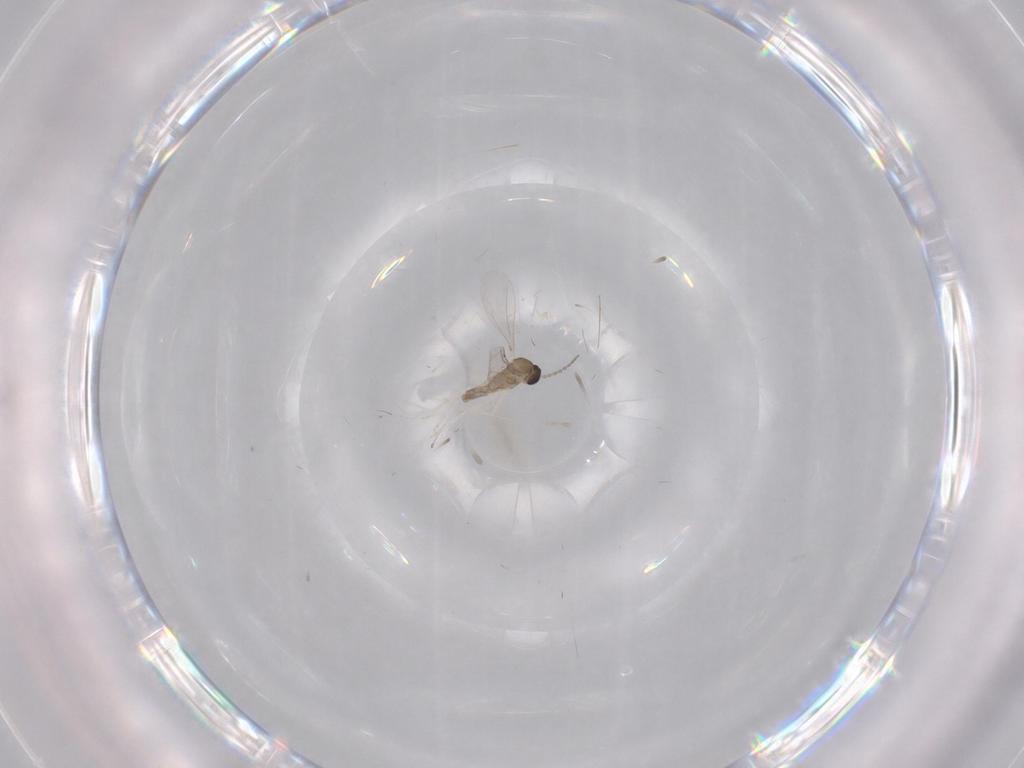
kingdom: Animalia
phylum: Arthropoda
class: Insecta
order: Diptera
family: Cecidomyiidae
